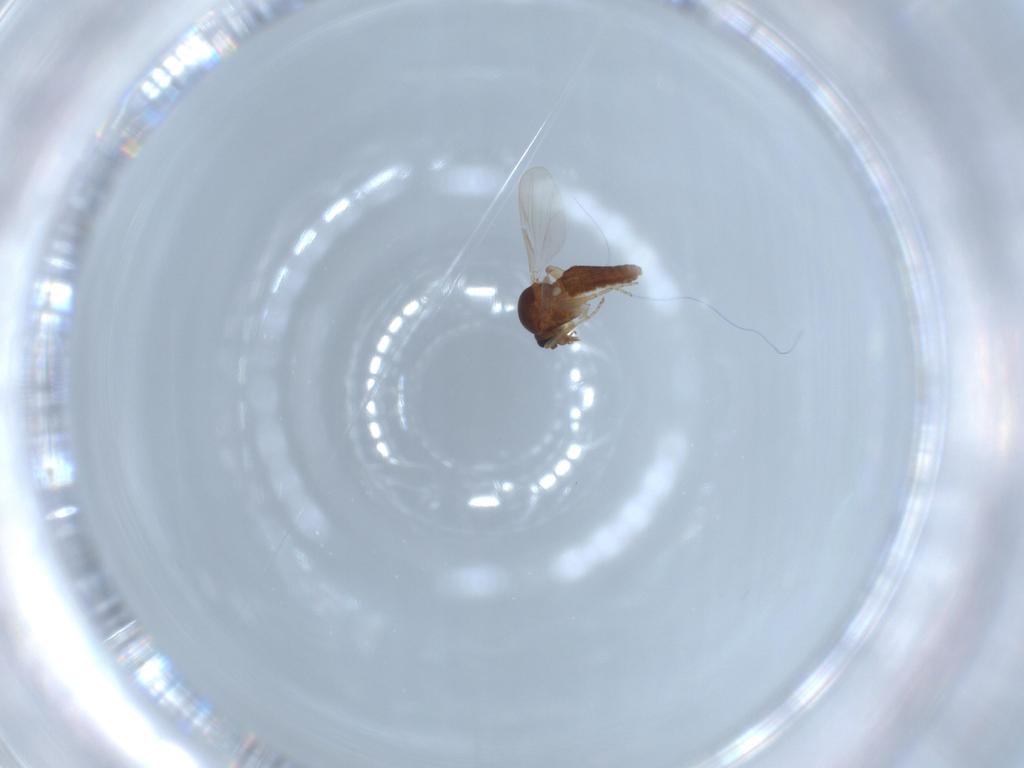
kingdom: Animalia
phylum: Arthropoda
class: Insecta
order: Diptera
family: Ceratopogonidae
